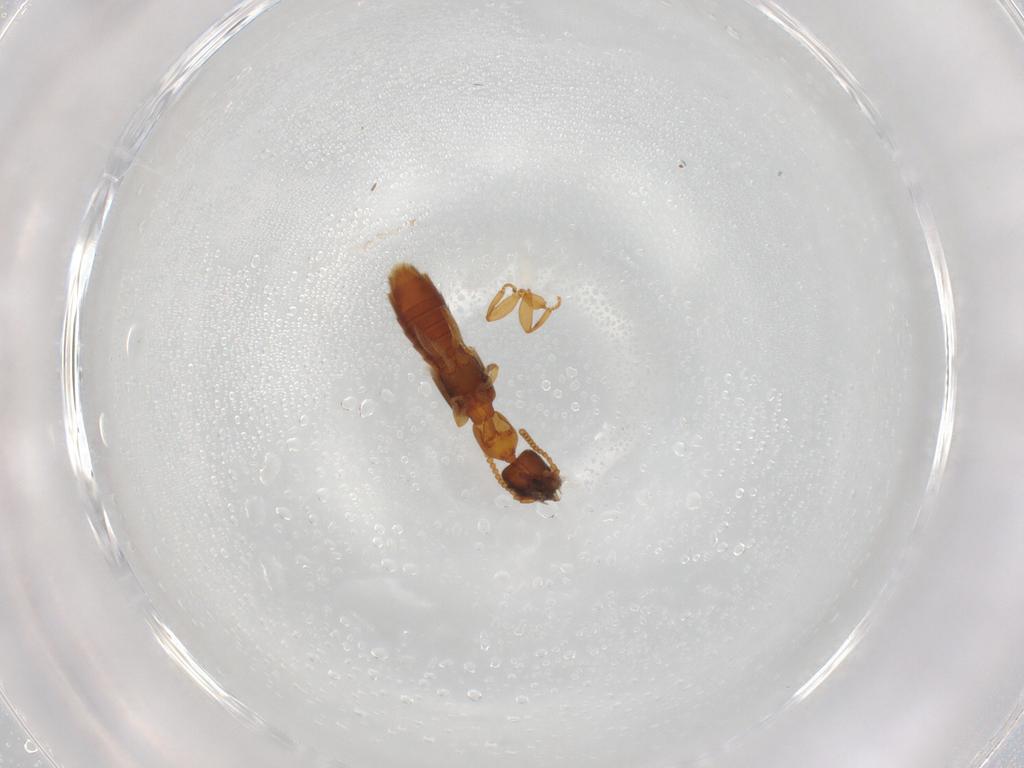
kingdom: Animalia
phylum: Arthropoda
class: Insecta
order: Coleoptera
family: Staphylinidae
